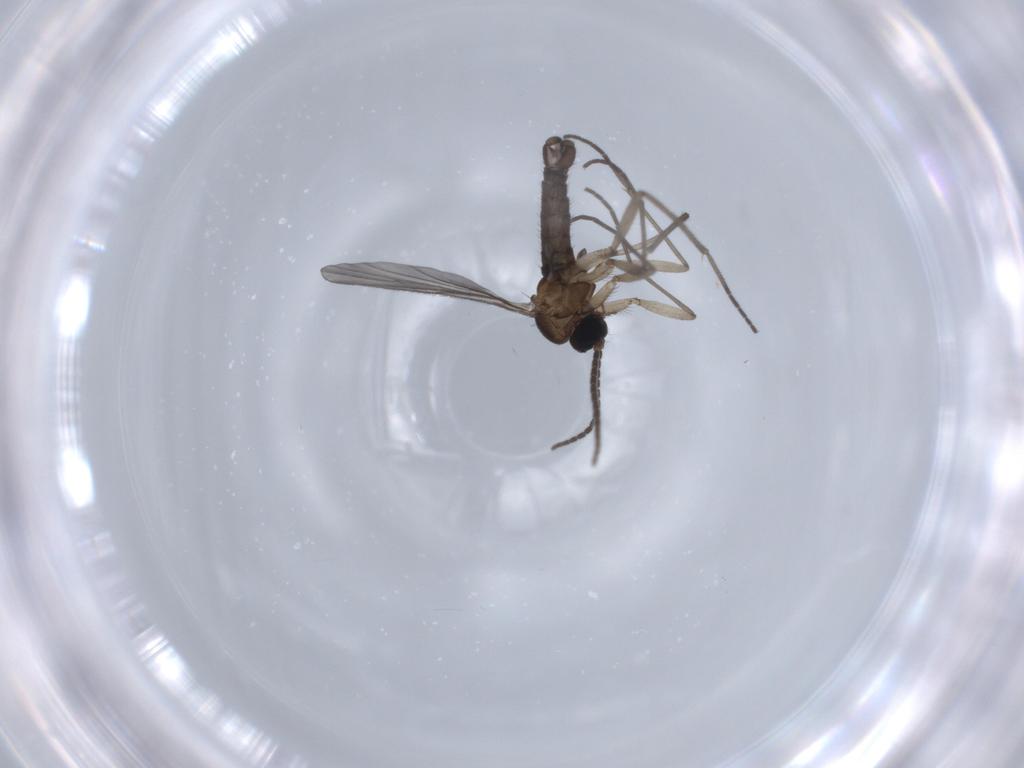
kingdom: Animalia
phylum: Arthropoda
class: Insecta
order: Diptera
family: Sciaridae
